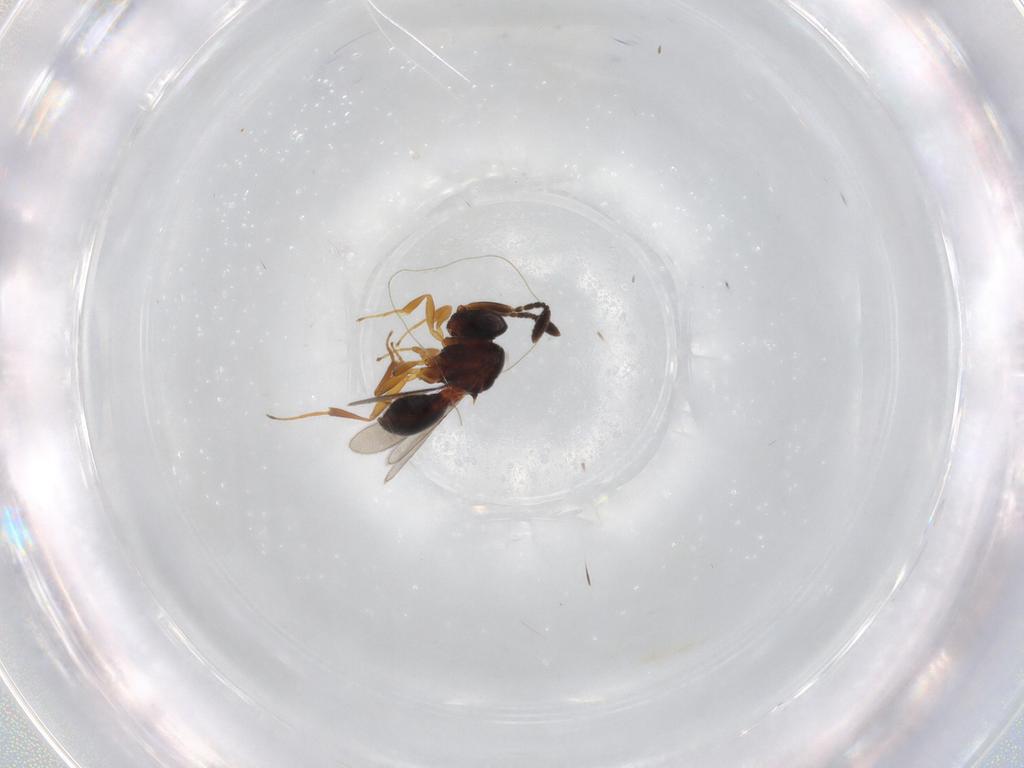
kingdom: Animalia
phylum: Arthropoda
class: Insecta
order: Hymenoptera
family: Scelionidae
